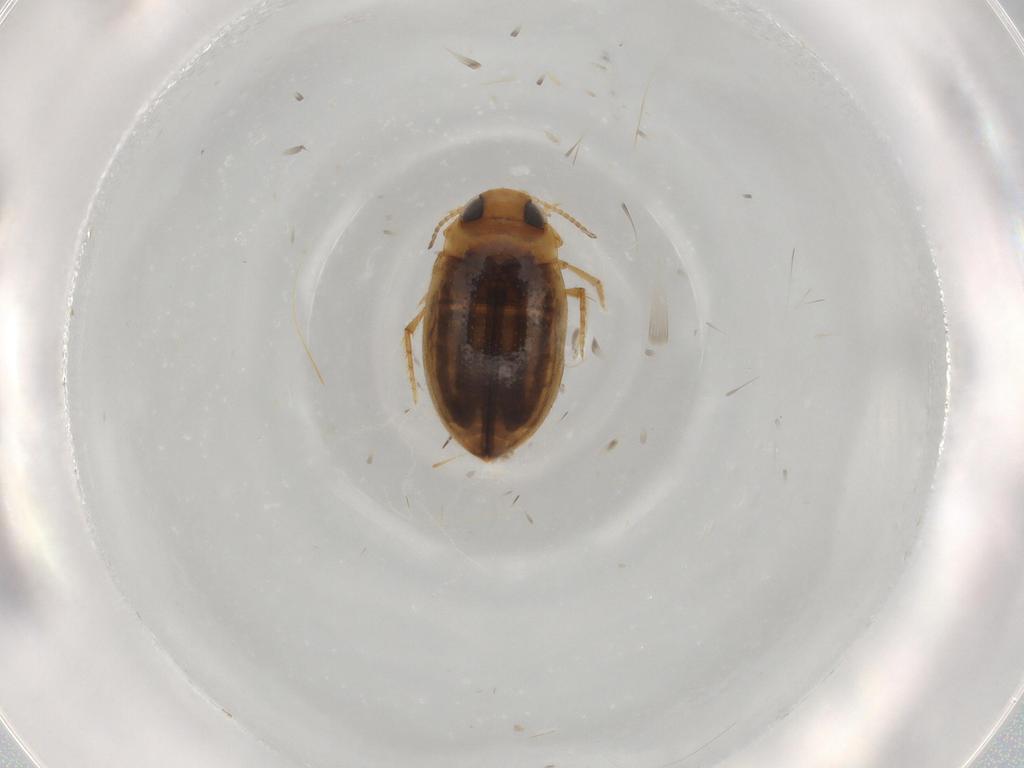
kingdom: Animalia
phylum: Arthropoda
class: Insecta
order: Coleoptera
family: Dytiscidae
